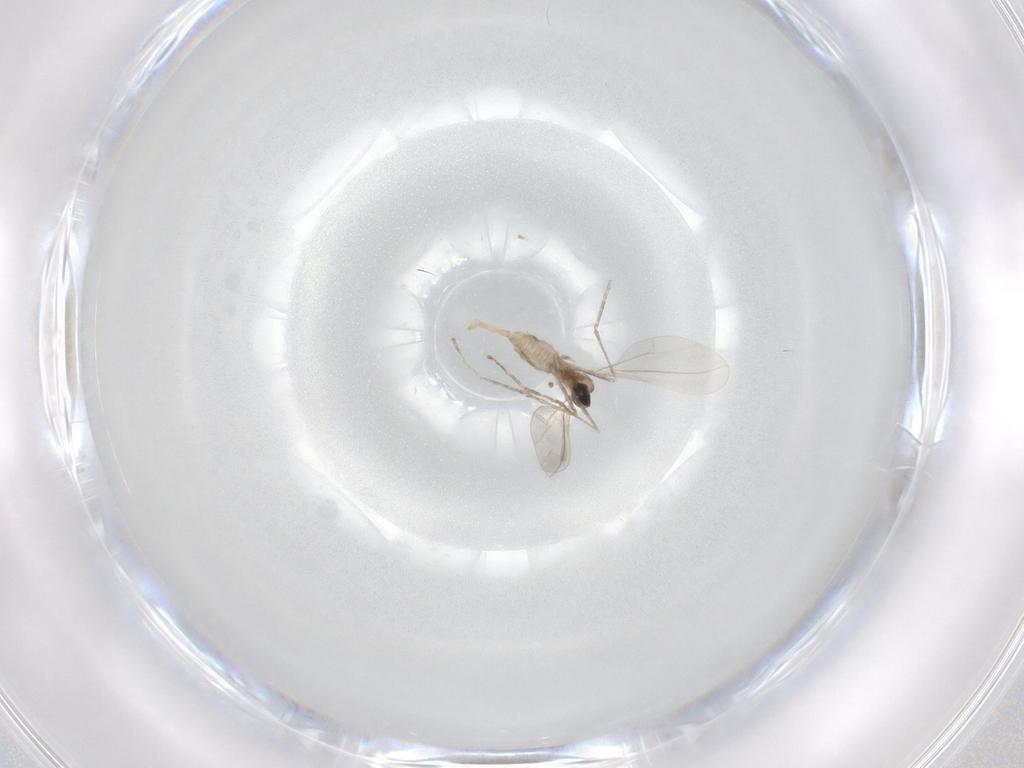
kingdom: Animalia
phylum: Arthropoda
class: Insecta
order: Diptera
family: Cecidomyiidae
